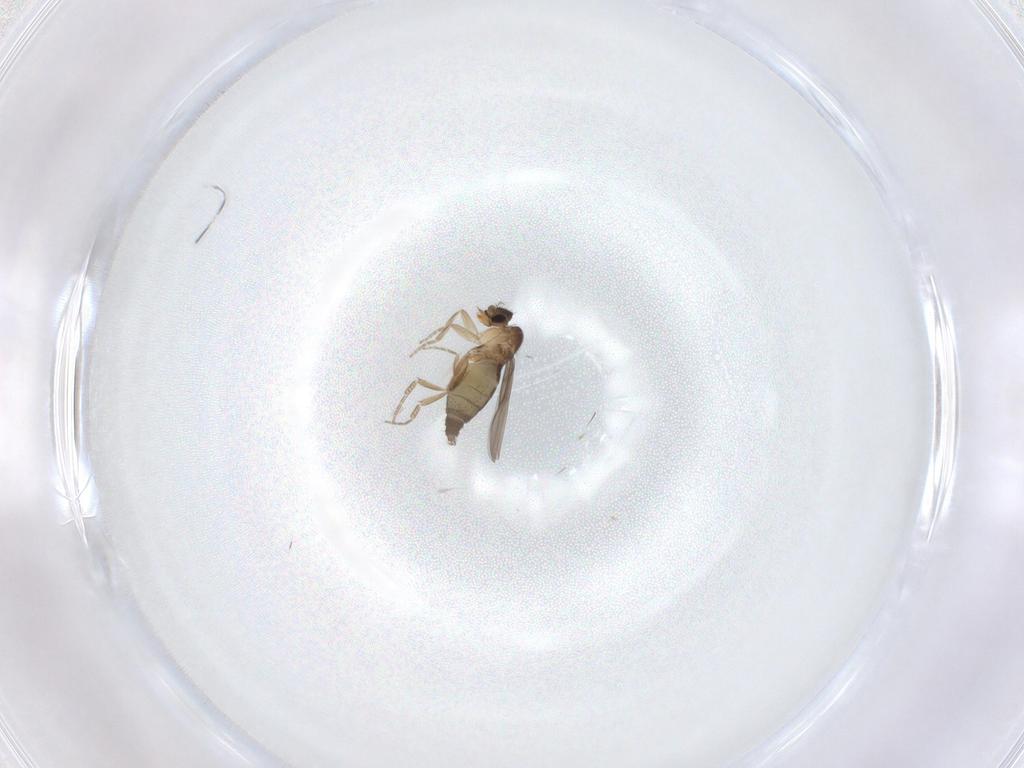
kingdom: Animalia
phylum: Arthropoda
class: Insecta
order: Diptera
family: Phoridae
